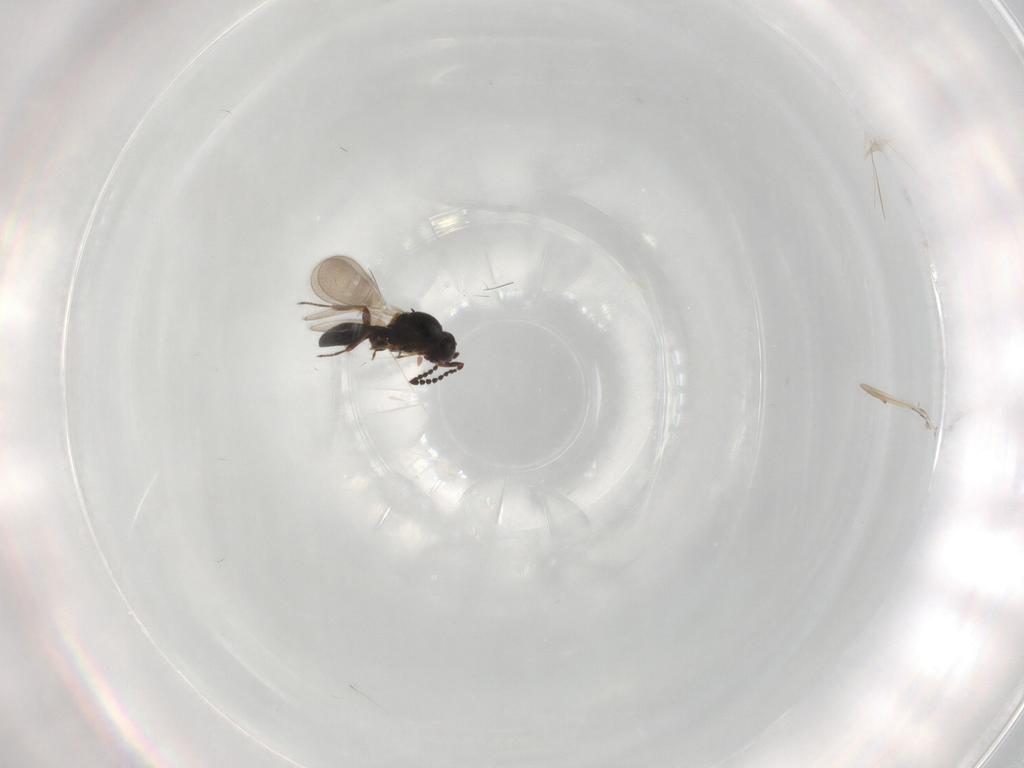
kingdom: Animalia
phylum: Arthropoda
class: Insecta
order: Hymenoptera
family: Platygastridae
